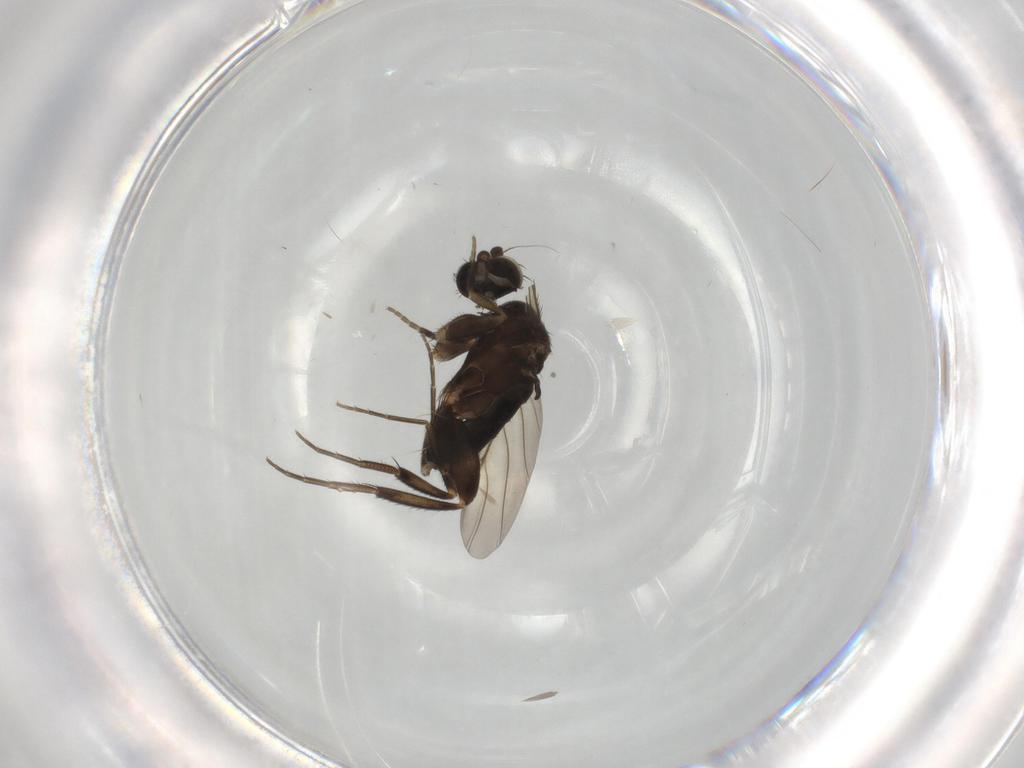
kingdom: Animalia
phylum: Arthropoda
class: Insecta
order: Diptera
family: Phoridae
